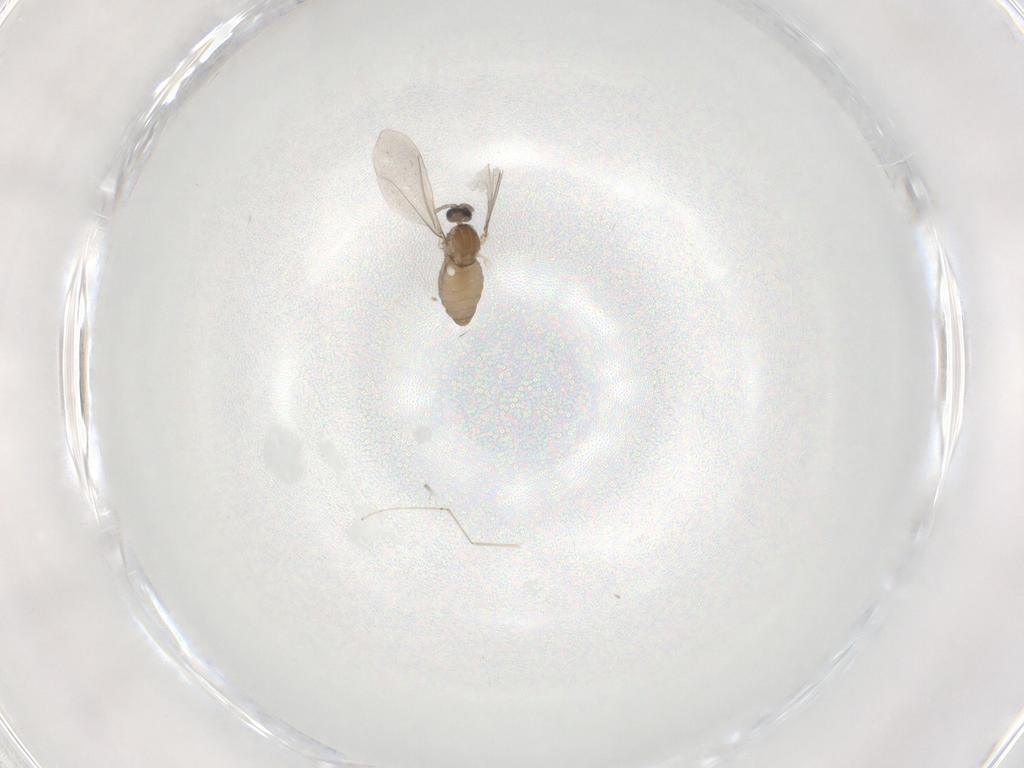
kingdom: Animalia
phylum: Arthropoda
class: Insecta
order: Diptera
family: Cecidomyiidae
